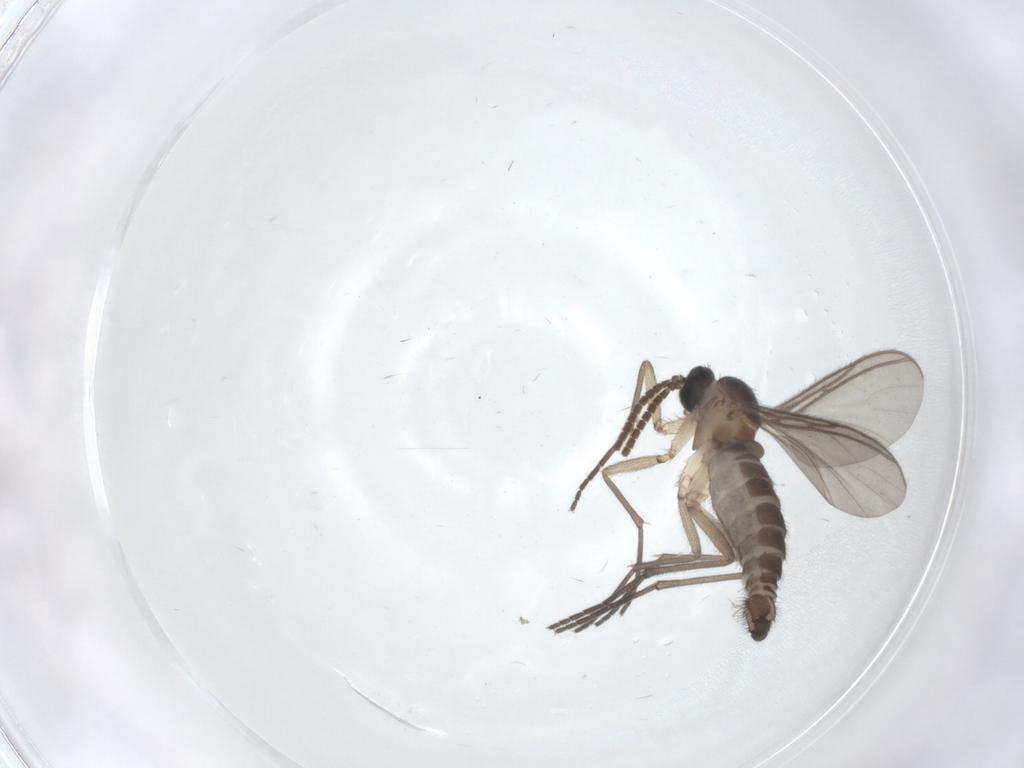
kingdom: Animalia
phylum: Arthropoda
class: Insecta
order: Diptera
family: Cecidomyiidae
